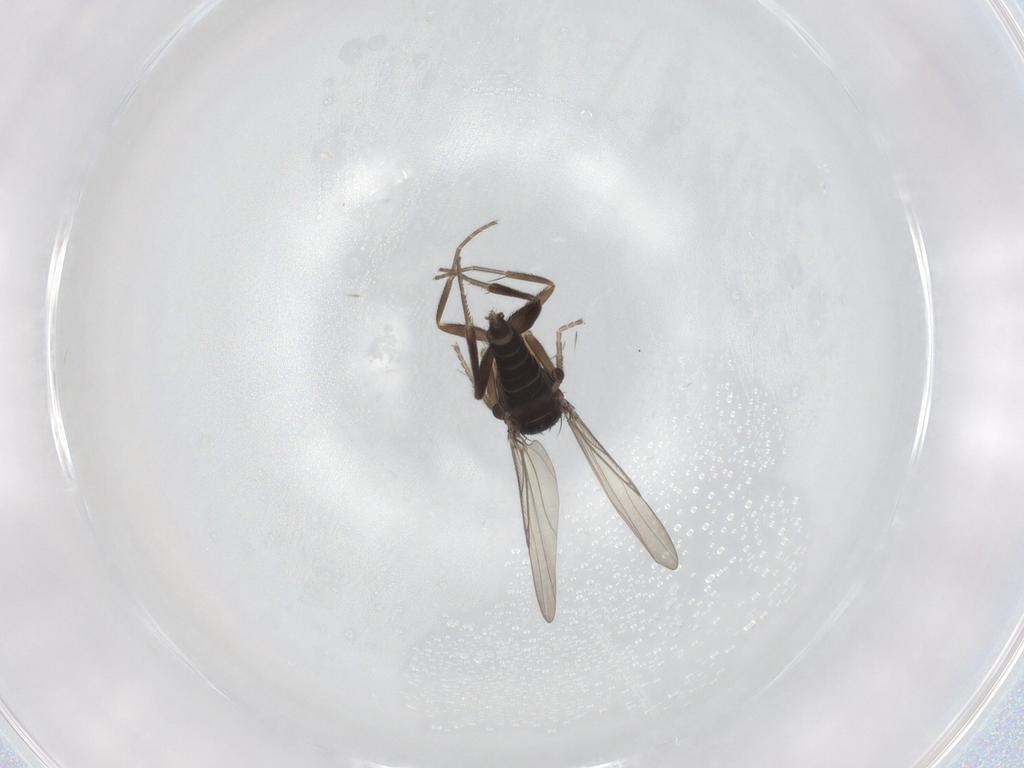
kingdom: Animalia
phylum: Arthropoda
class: Insecta
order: Diptera
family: Phoridae
